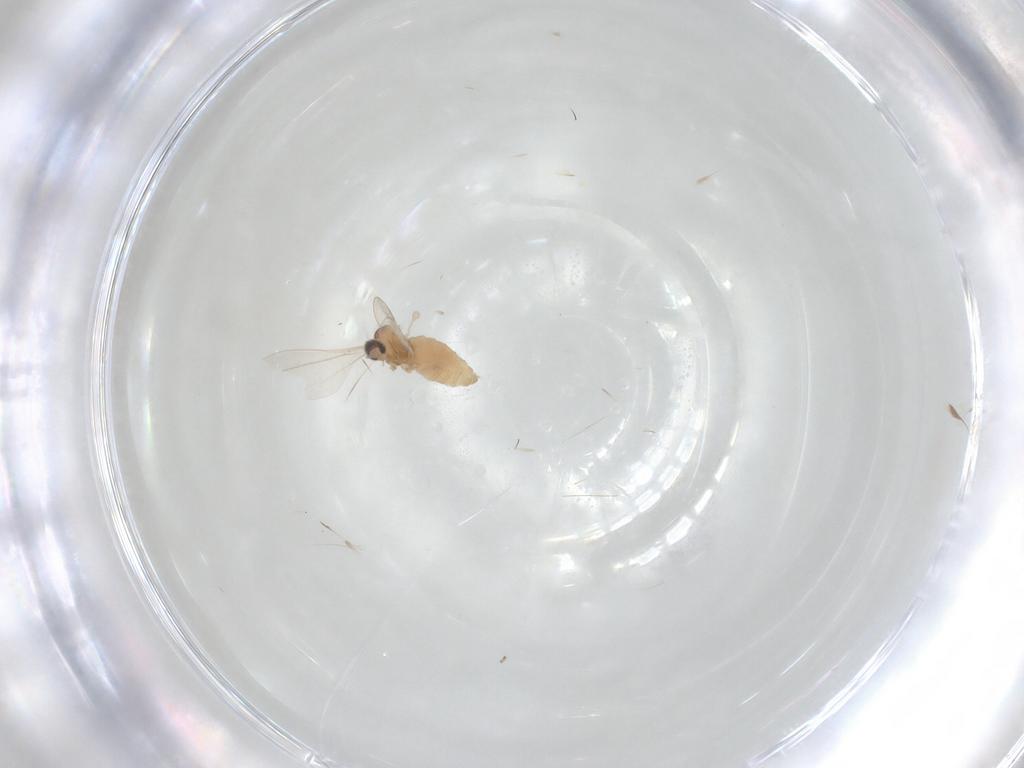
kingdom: Animalia
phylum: Arthropoda
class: Insecta
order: Diptera
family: Cecidomyiidae
